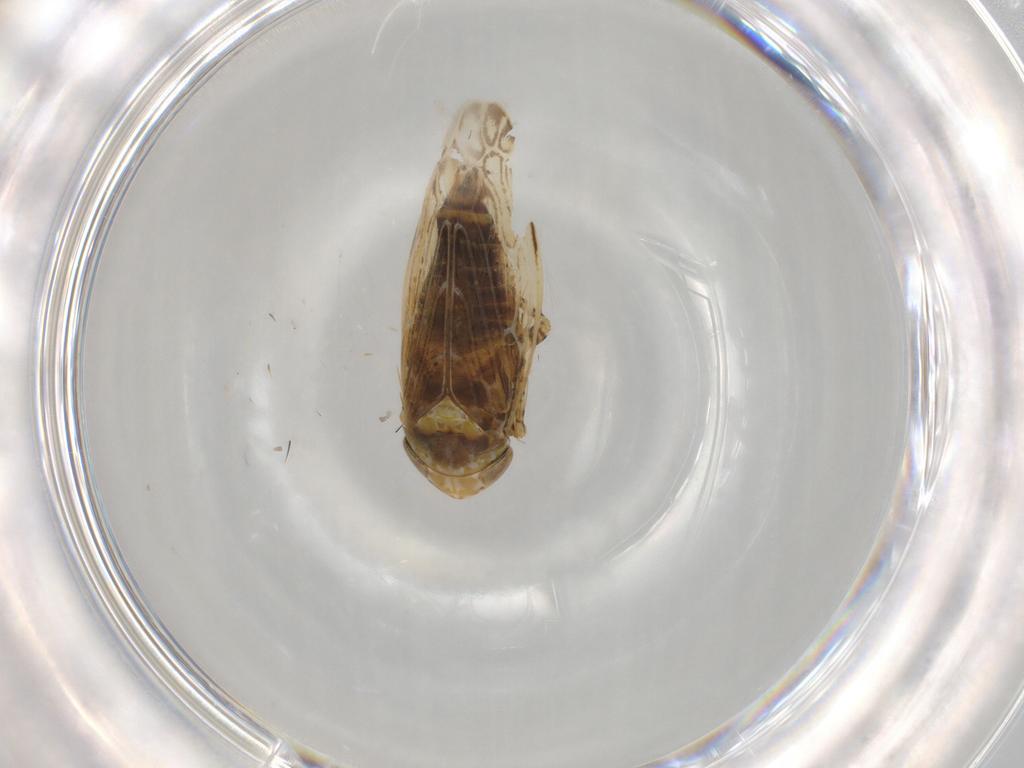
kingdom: Animalia
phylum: Arthropoda
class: Insecta
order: Hemiptera
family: Cicadellidae
